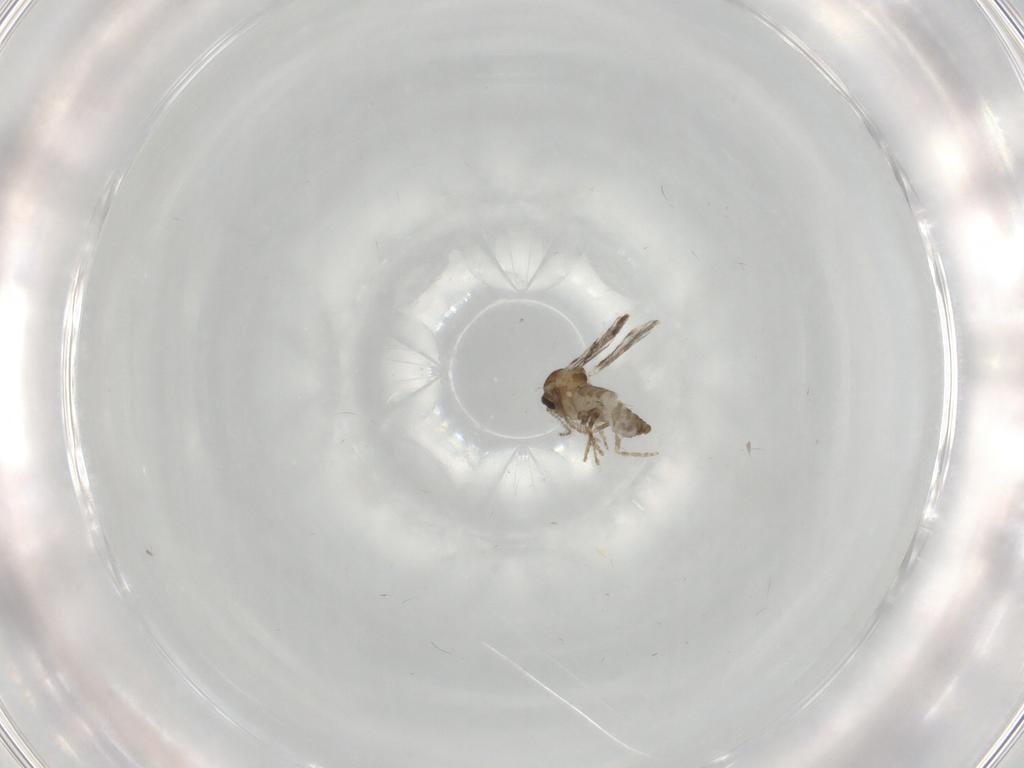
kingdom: Animalia
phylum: Arthropoda
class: Insecta
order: Diptera
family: Ceratopogonidae
